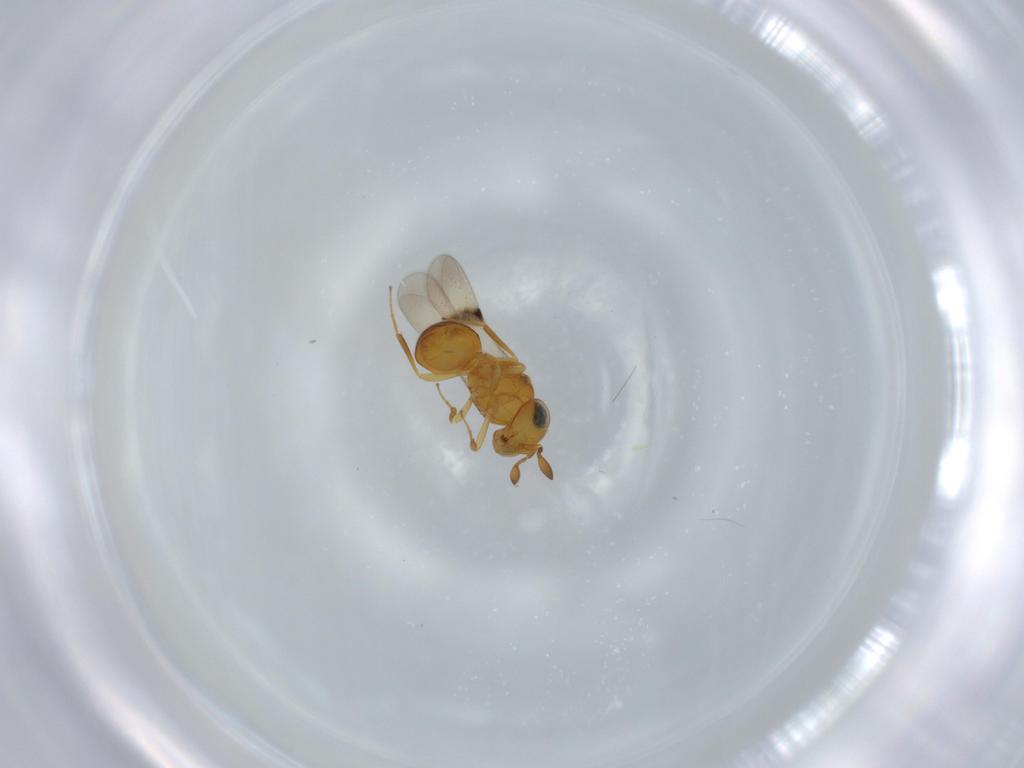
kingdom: Animalia
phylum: Arthropoda
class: Insecta
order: Hymenoptera
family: Scelionidae
